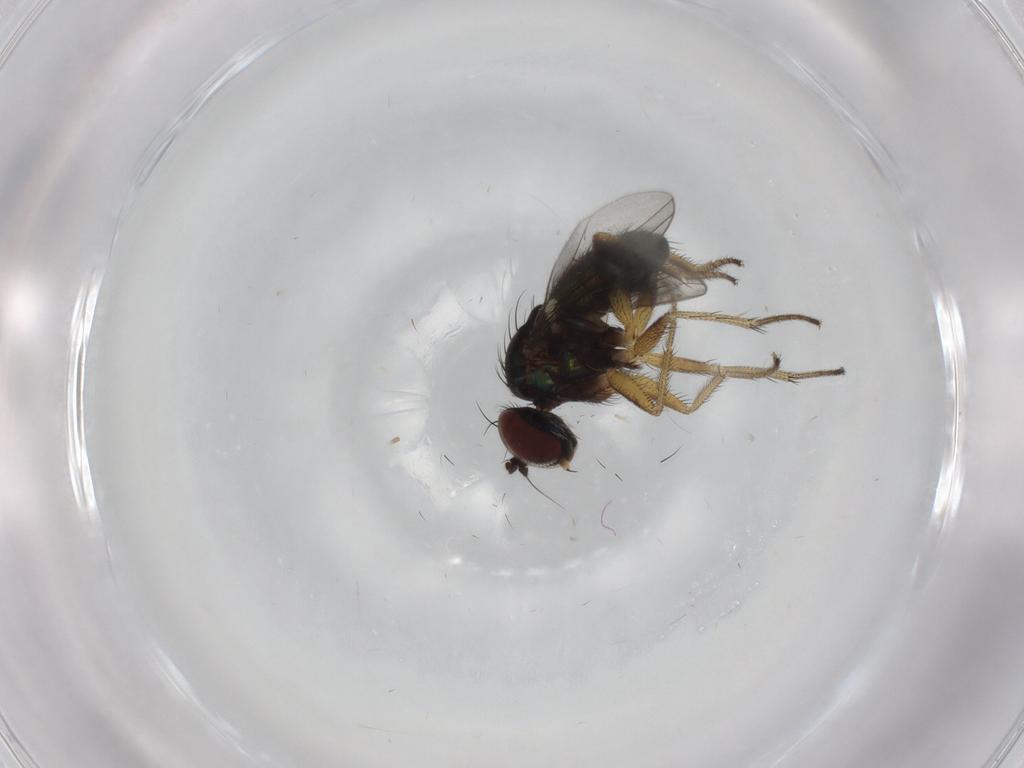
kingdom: Animalia
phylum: Arthropoda
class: Insecta
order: Diptera
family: Dolichopodidae
